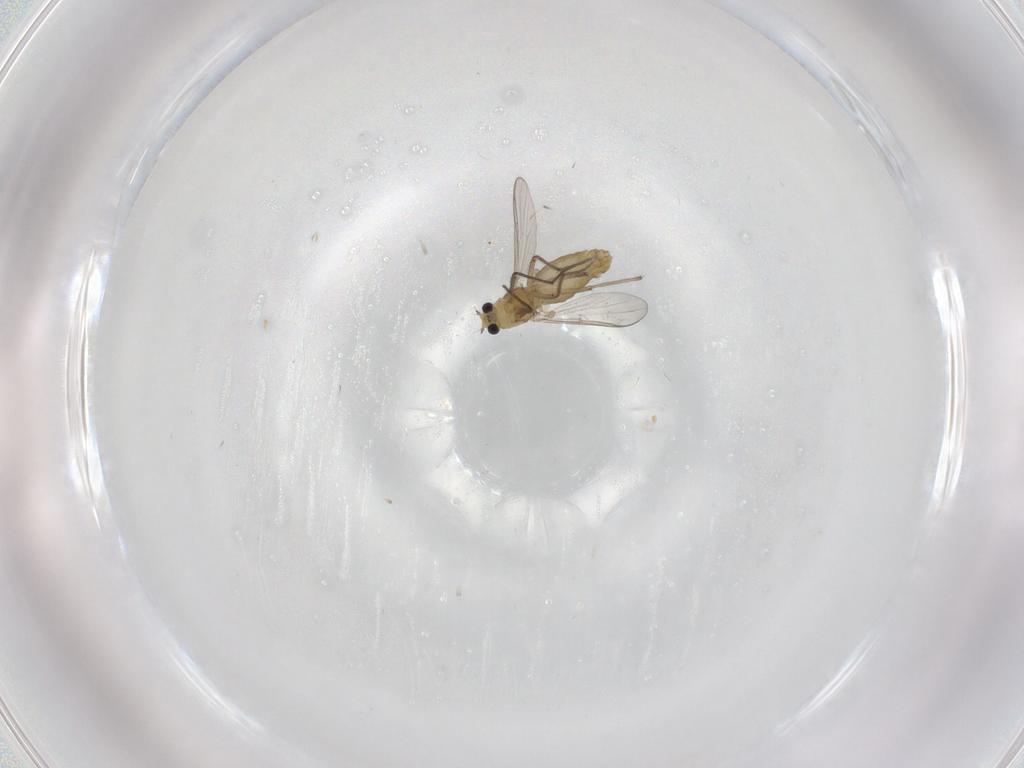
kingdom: Animalia
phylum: Arthropoda
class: Insecta
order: Diptera
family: Chironomidae
